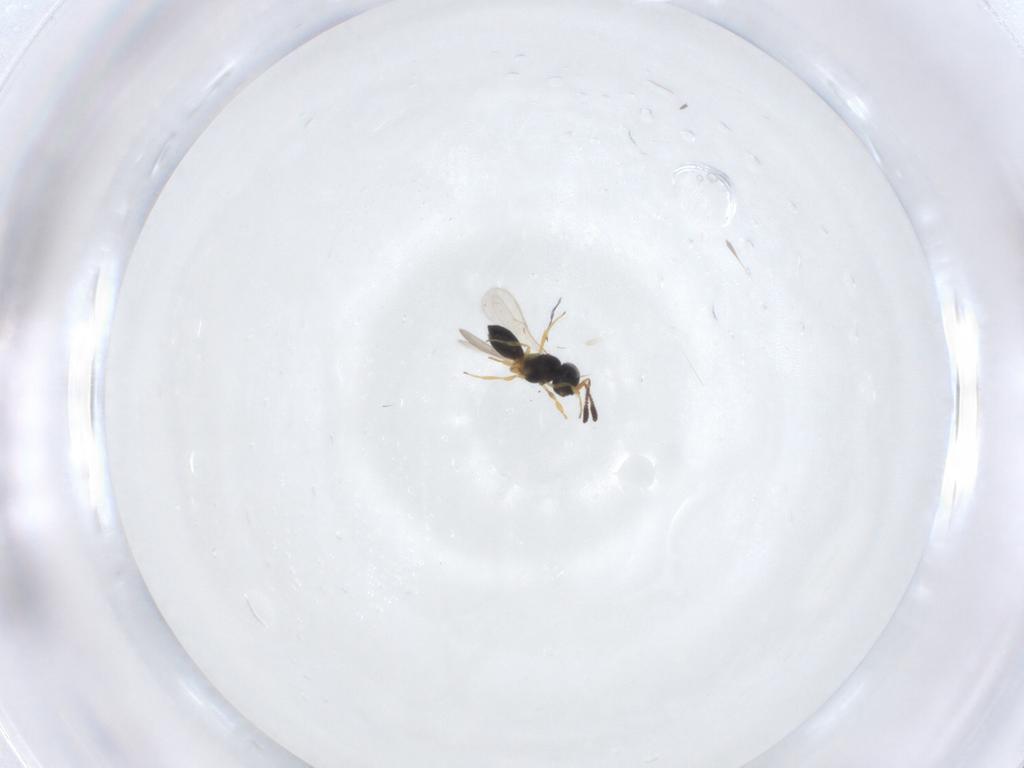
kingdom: Animalia
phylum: Arthropoda
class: Insecta
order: Hymenoptera
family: Scelionidae
